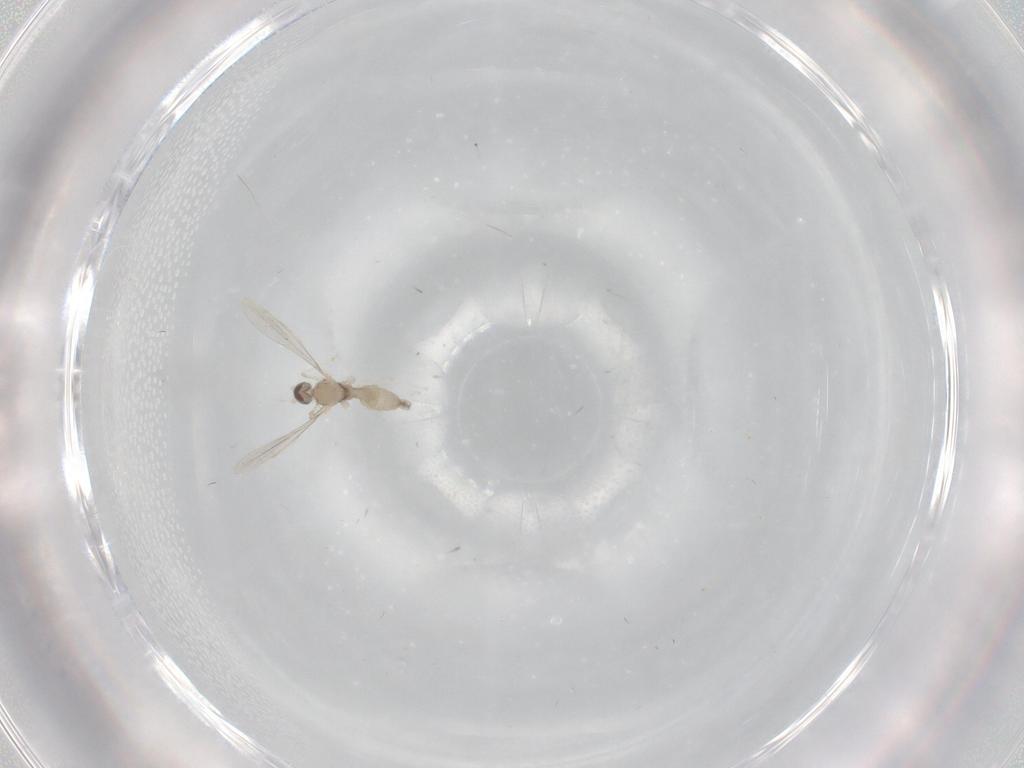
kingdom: Animalia
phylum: Arthropoda
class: Insecta
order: Diptera
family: Cecidomyiidae
